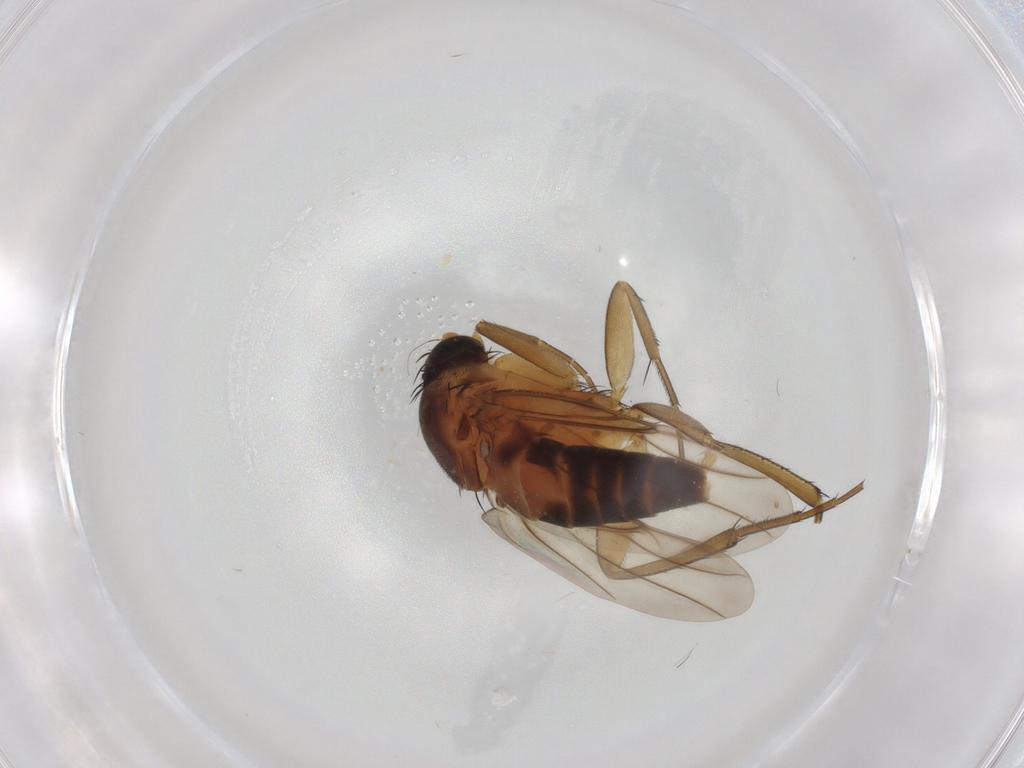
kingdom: Animalia
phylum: Arthropoda
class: Insecta
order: Diptera
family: Phoridae
